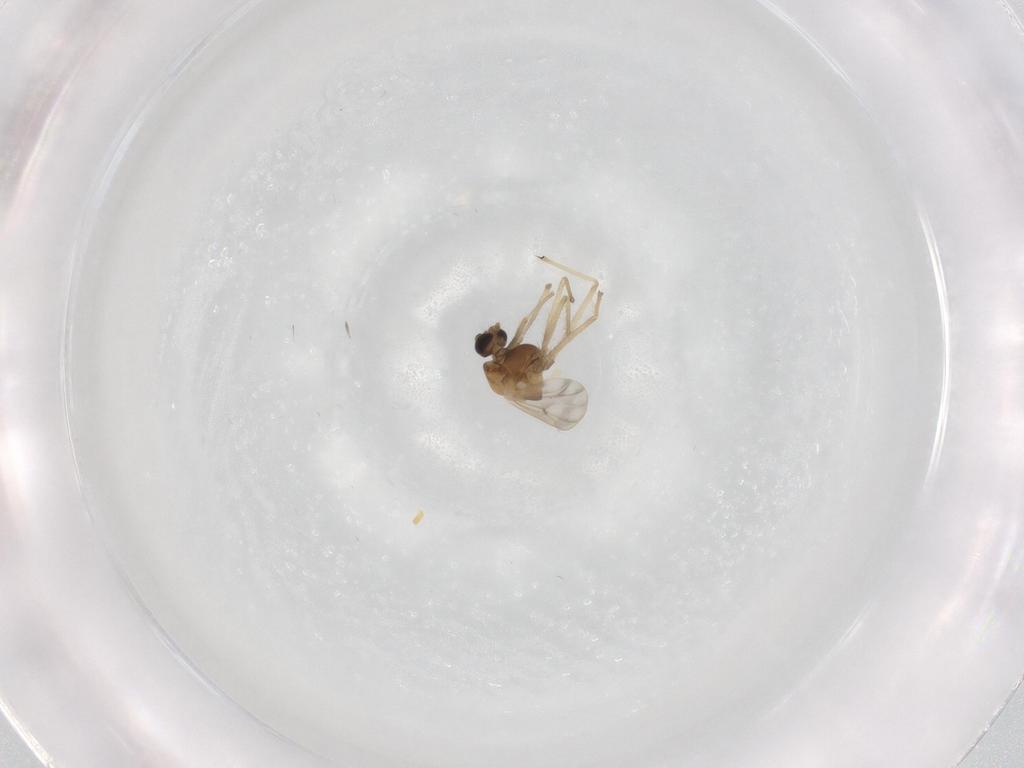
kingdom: Animalia
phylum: Arthropoda
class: Insecta
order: Diptera
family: Chironomidae
